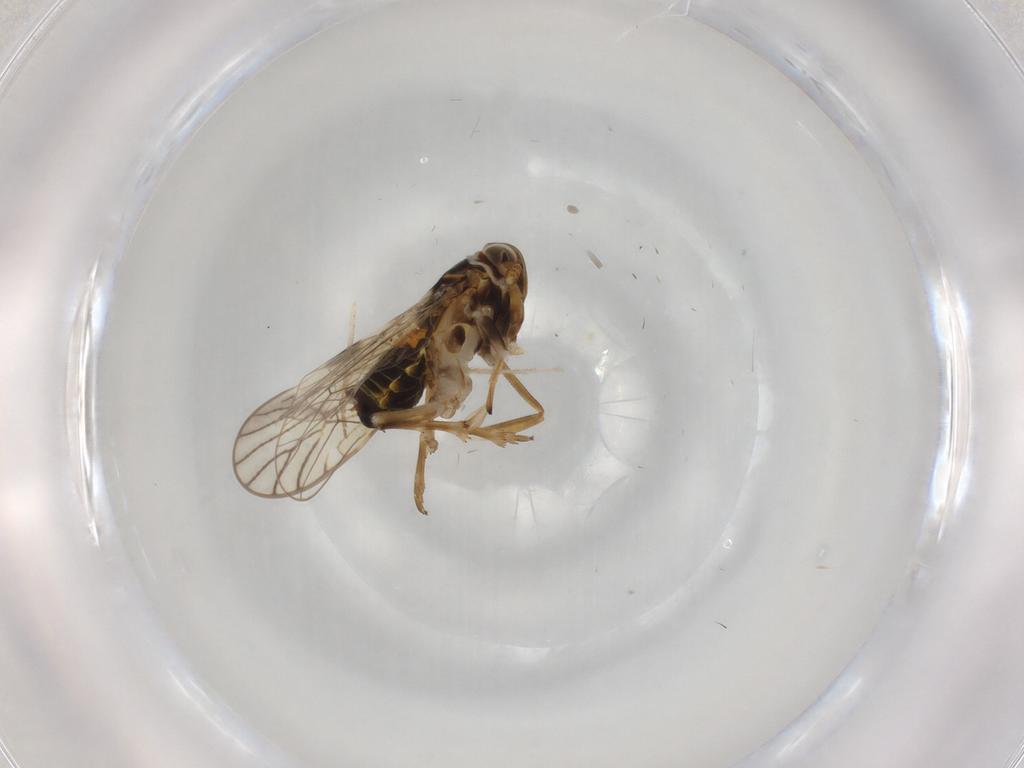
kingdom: Animalia
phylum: Arthropoda
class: Insecta
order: Hemiptera
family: Delphacidae
